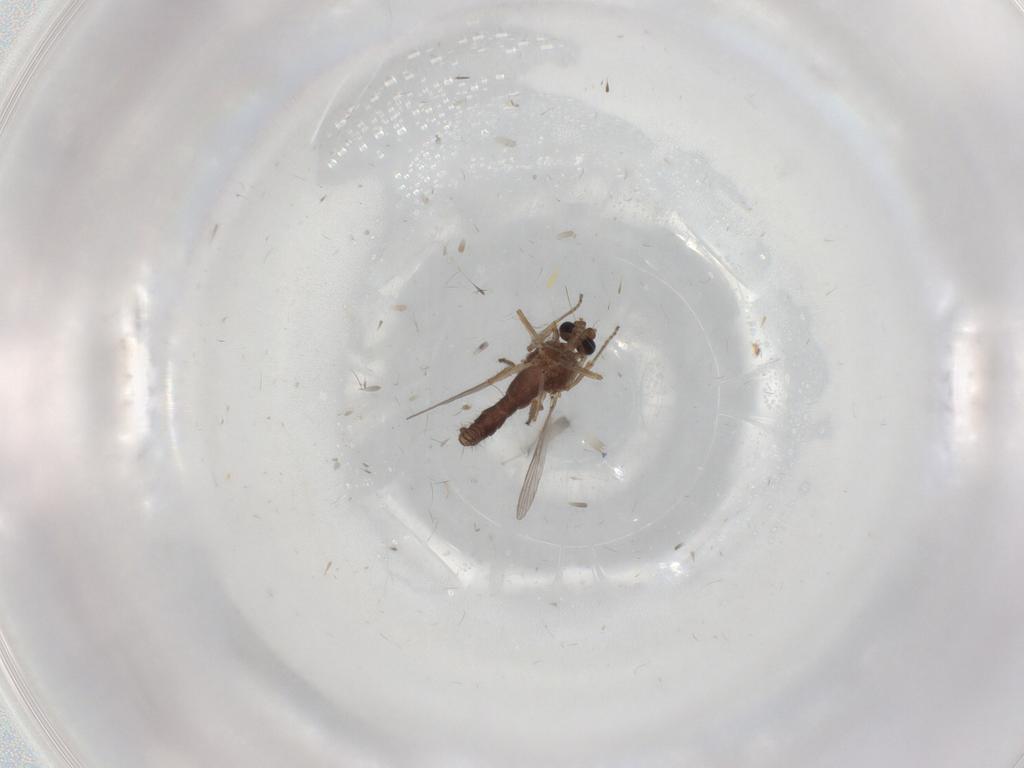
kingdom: Animalia
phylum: Arthropoda
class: Insecta
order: Diptera
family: Ceratopogonidae
